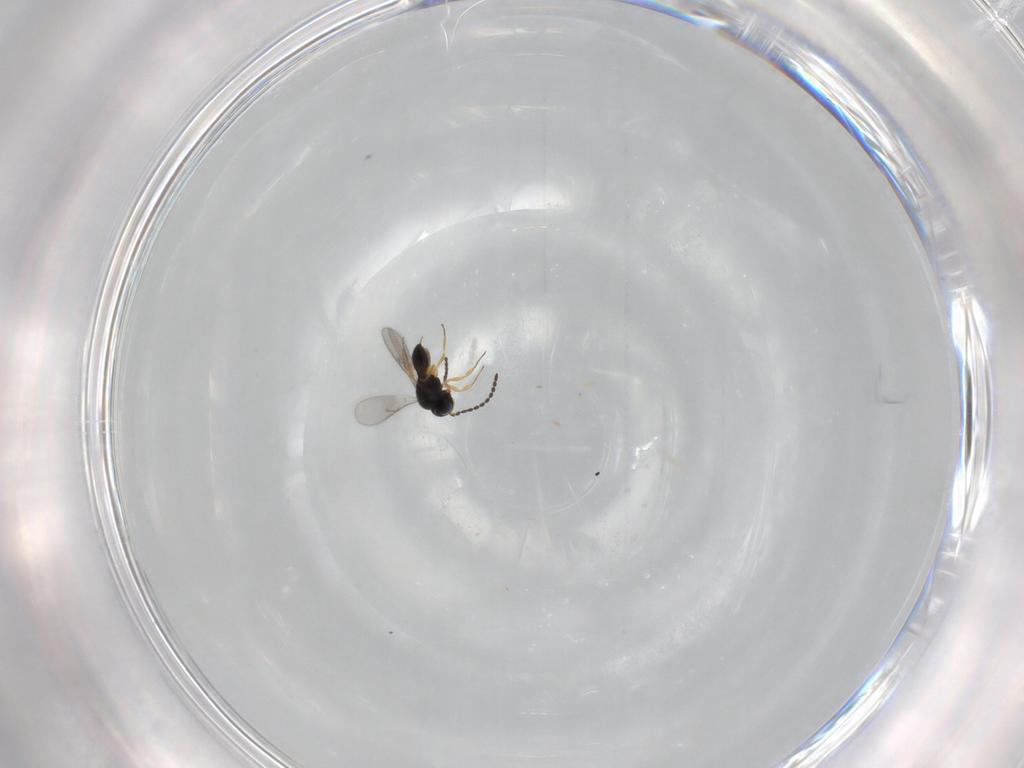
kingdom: Animalia
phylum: Arthropoda
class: Insecta
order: Hymenoptera
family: Scelionidae
